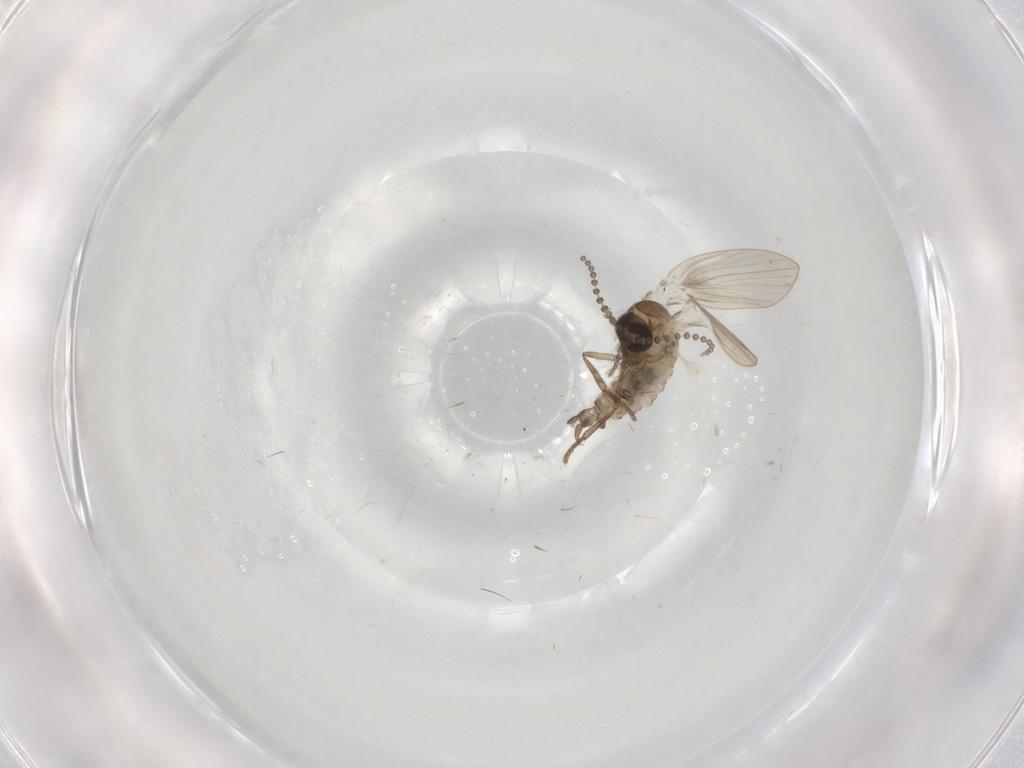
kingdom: Animalia
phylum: Arthropoda
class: Insecta
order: Diptera
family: Psychodidae
